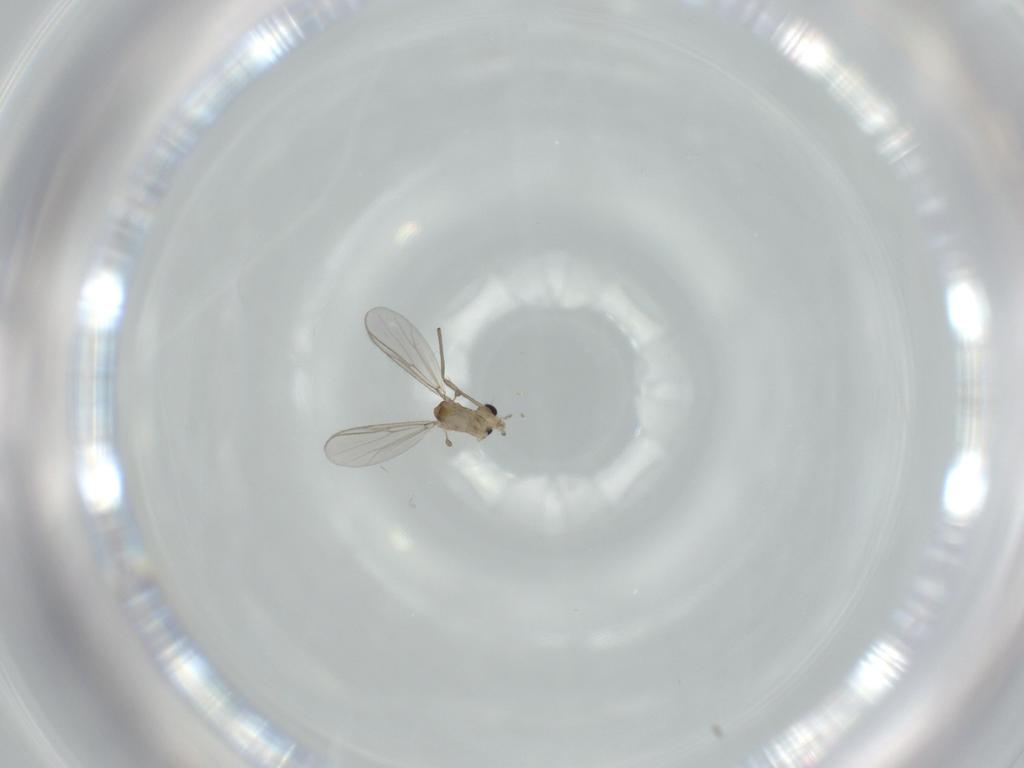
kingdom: Animalia
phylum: Arthropoda
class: Insecta
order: Diptera
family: Chironomidae
